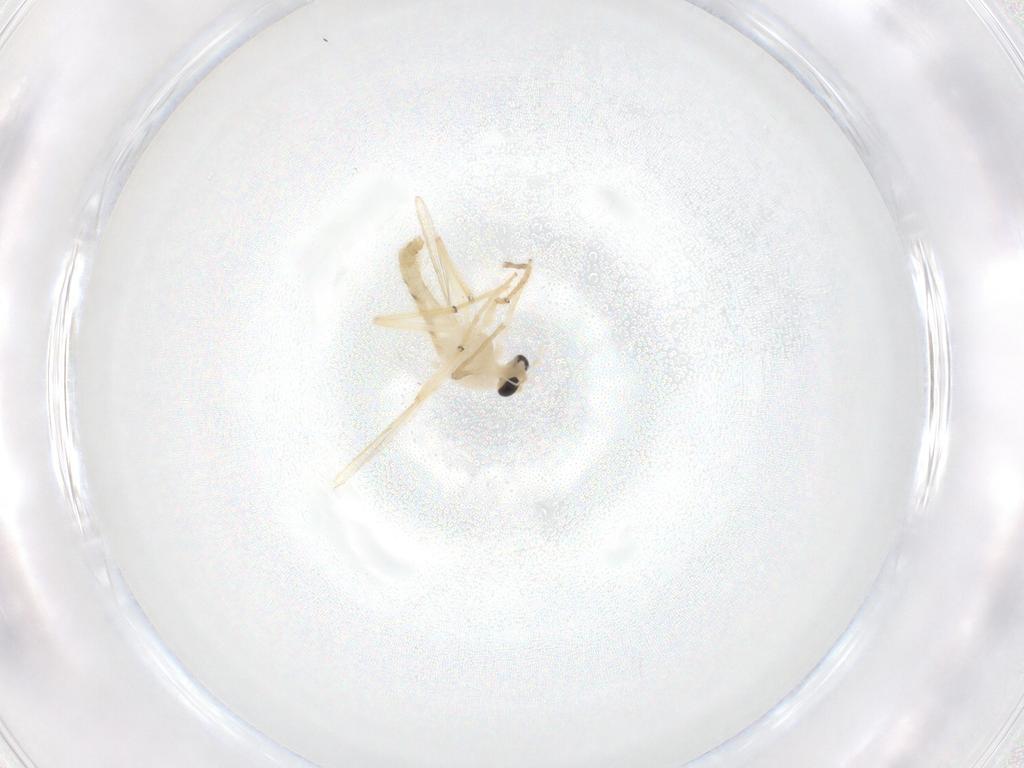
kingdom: Animalia
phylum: Arthropoda
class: Insecta
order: Diptera
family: Chironomidae
